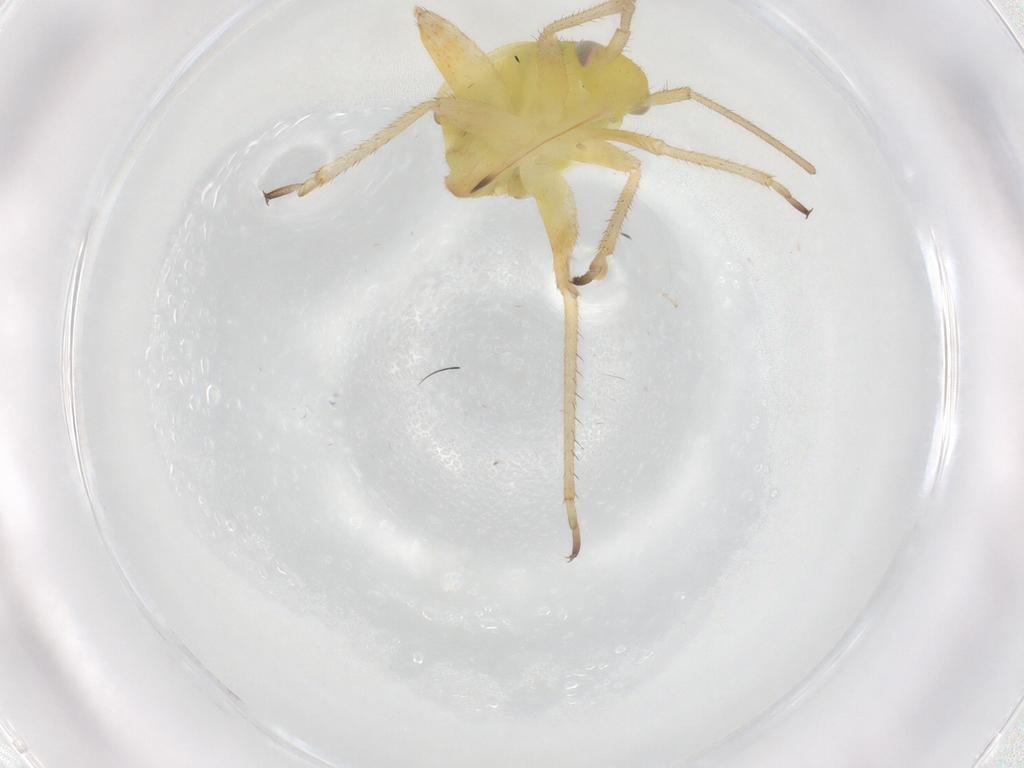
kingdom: Animalia
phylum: Arthropoda
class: Insecta
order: Hemiptera
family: Miridae
